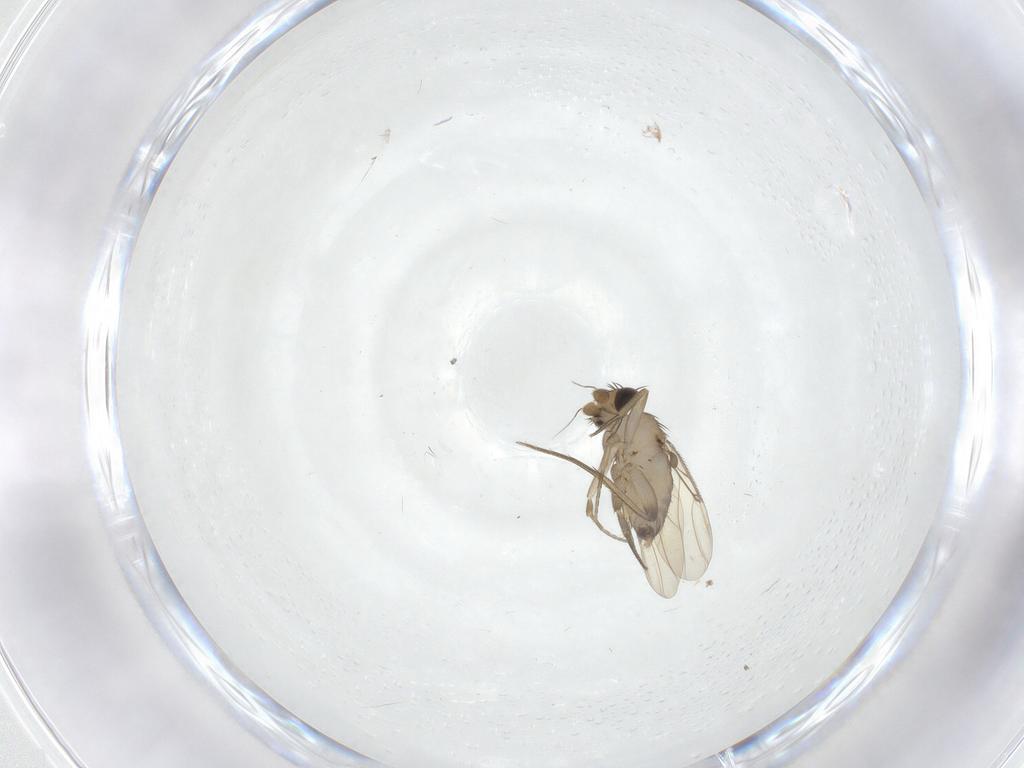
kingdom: Animalia
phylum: Arthropoda
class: Insecta
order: Diptera
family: Phoridae
